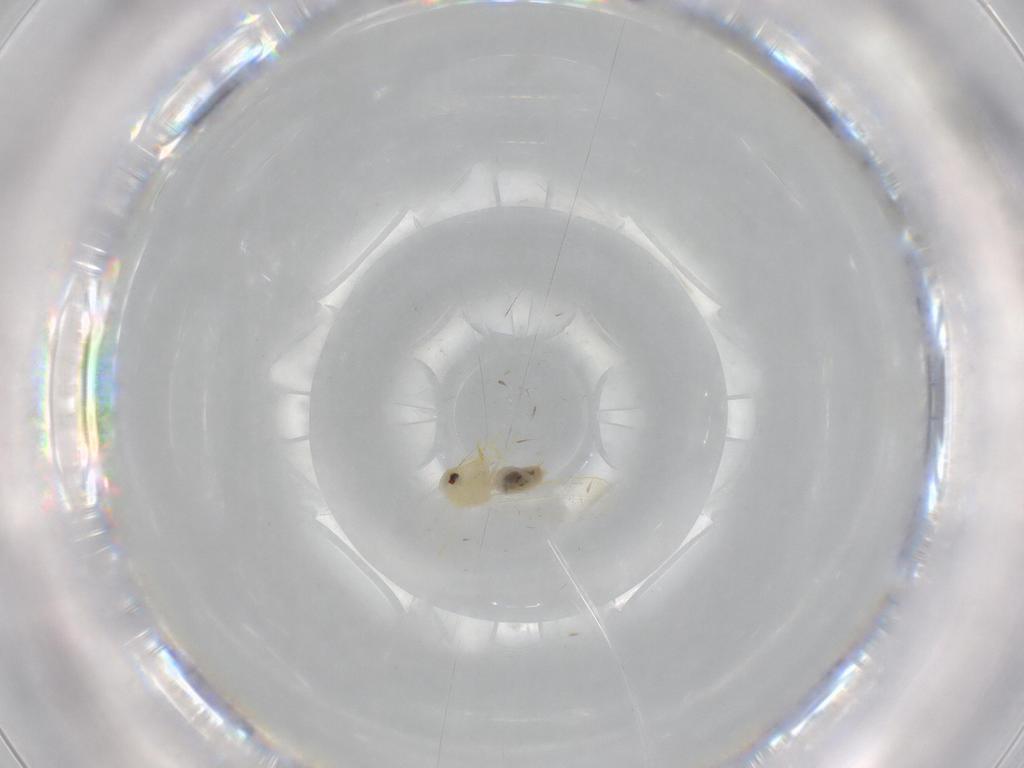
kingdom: Animalia
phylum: Arthropoda
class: Insecta
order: Hemiptera
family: Aleyrodidae
